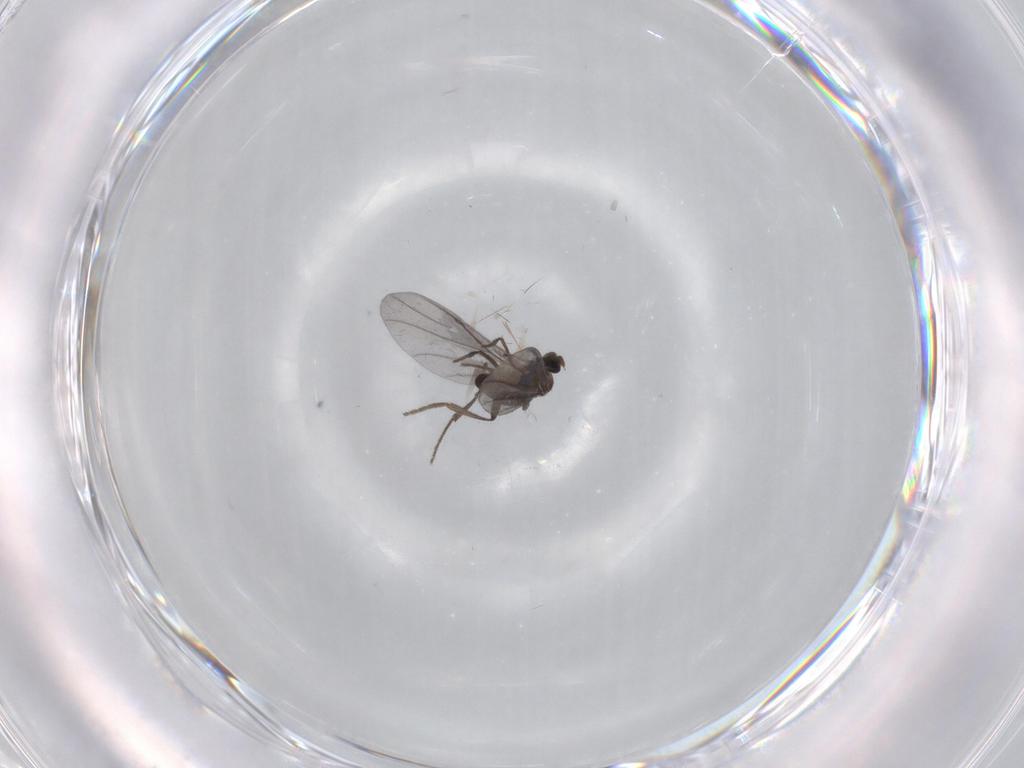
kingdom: Animalia
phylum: Arthropoda
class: Insecta
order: Diptera
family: Phoridae
